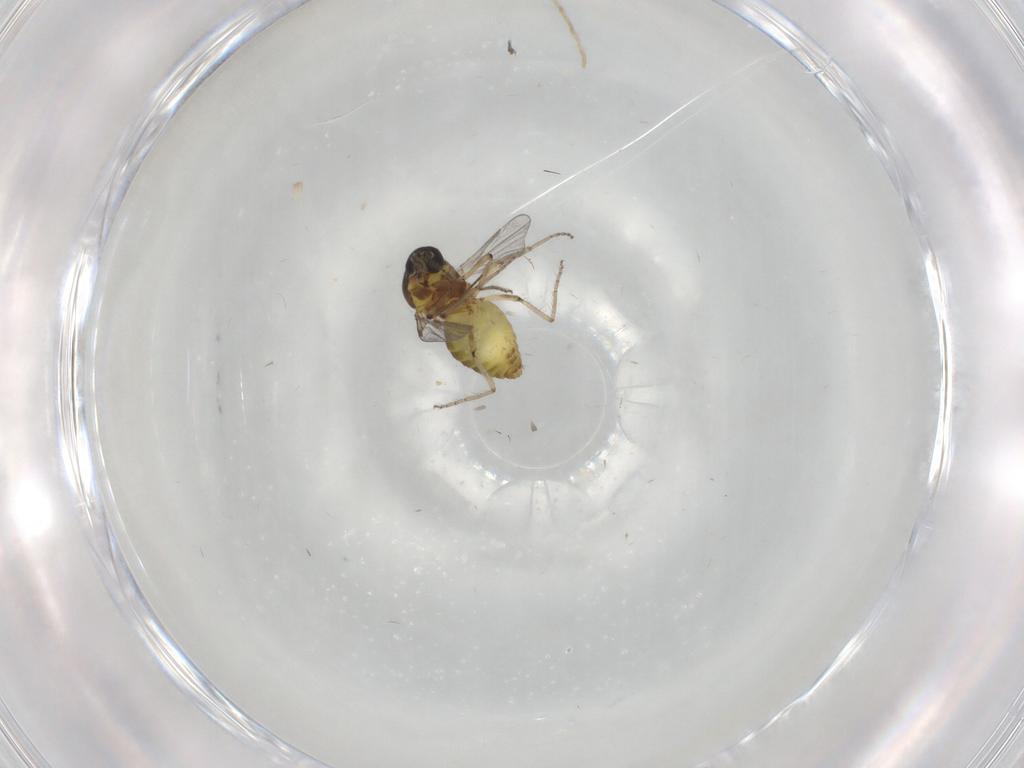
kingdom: Animalia
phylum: Arthropoda
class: Insecta
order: Diptera
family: Ceratopogonidae
